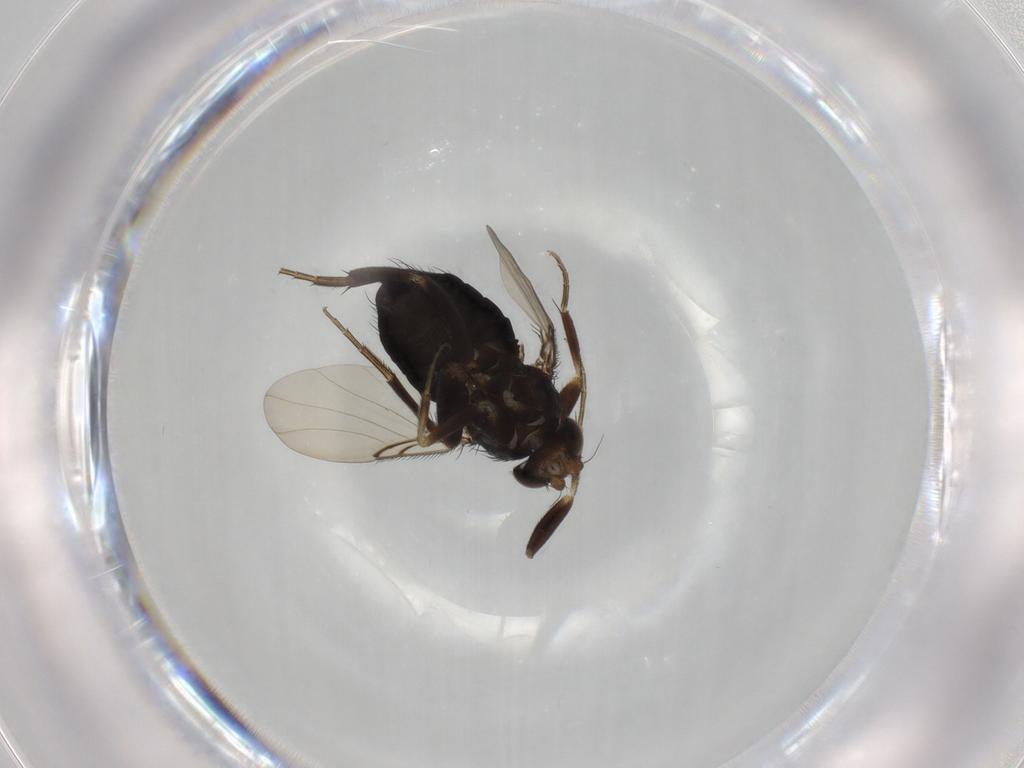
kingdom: Animalia
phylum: Arthropoda
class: Insecta
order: Diptera
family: Phoridae
